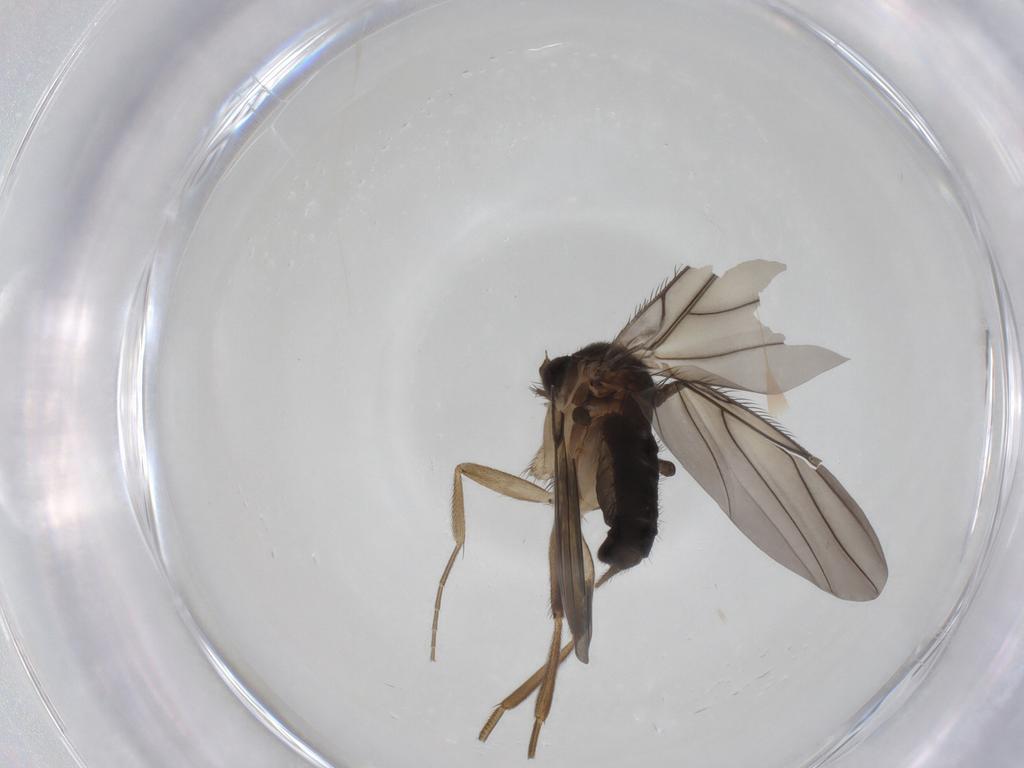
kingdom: Animalia
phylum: Arthropoda
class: Insecta
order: Diptera
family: Phoridae
